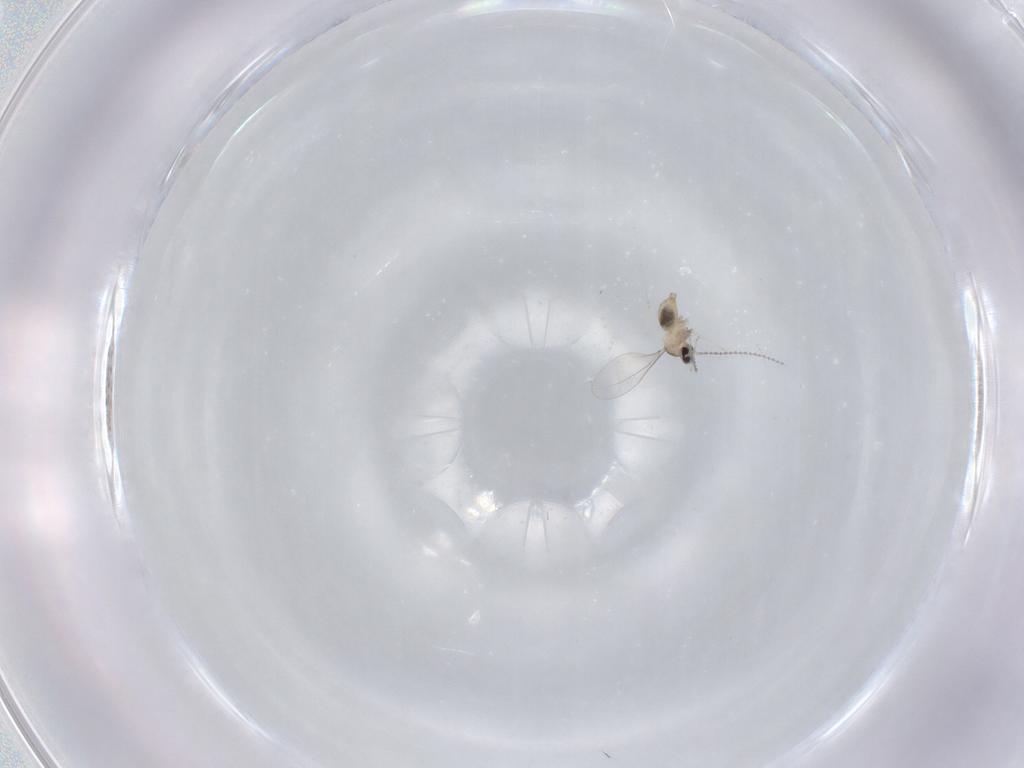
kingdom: Animalia
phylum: Arthropoda
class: Insecta
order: Diptera
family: Cecidomyiidae
